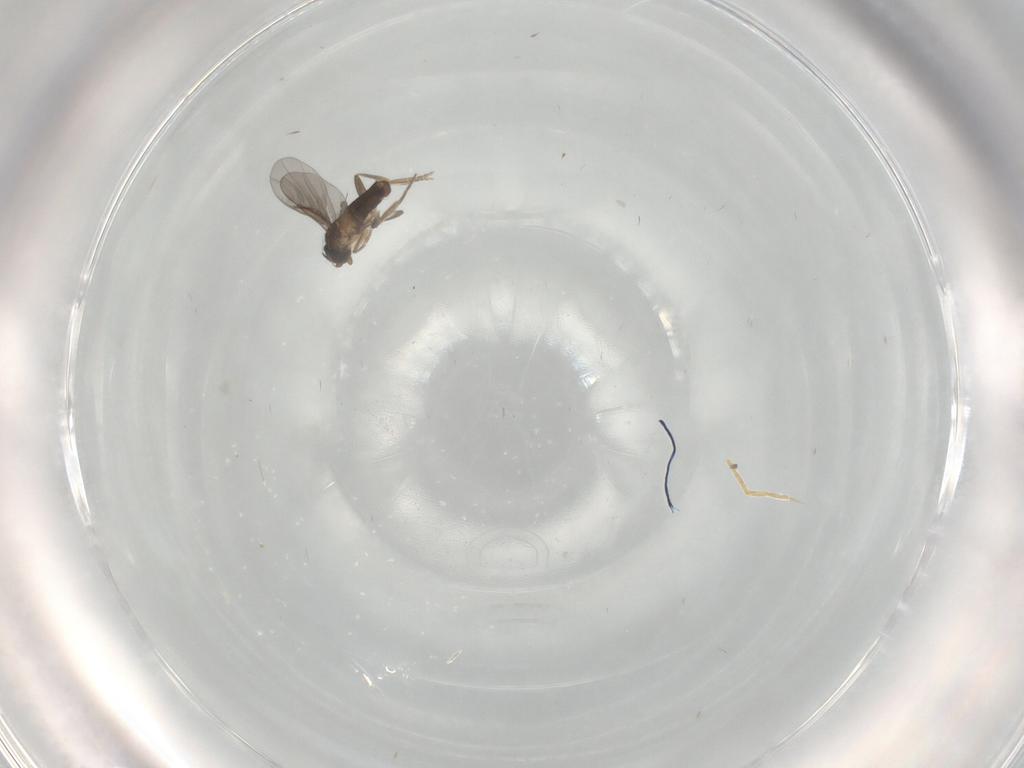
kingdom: Animalia
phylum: Arthropoda
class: Insecta
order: Diptera
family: Cecidomyiidae
